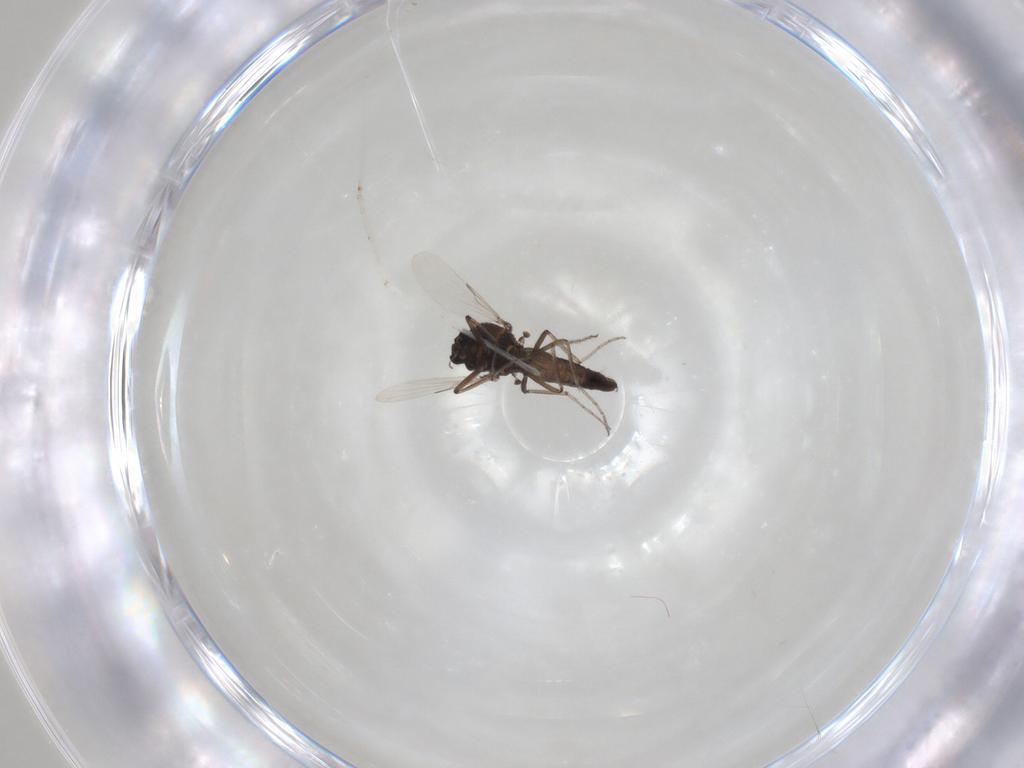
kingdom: Animalia
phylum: Arthropoda
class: Insecta
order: Diptera
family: Ceratopogonidae
